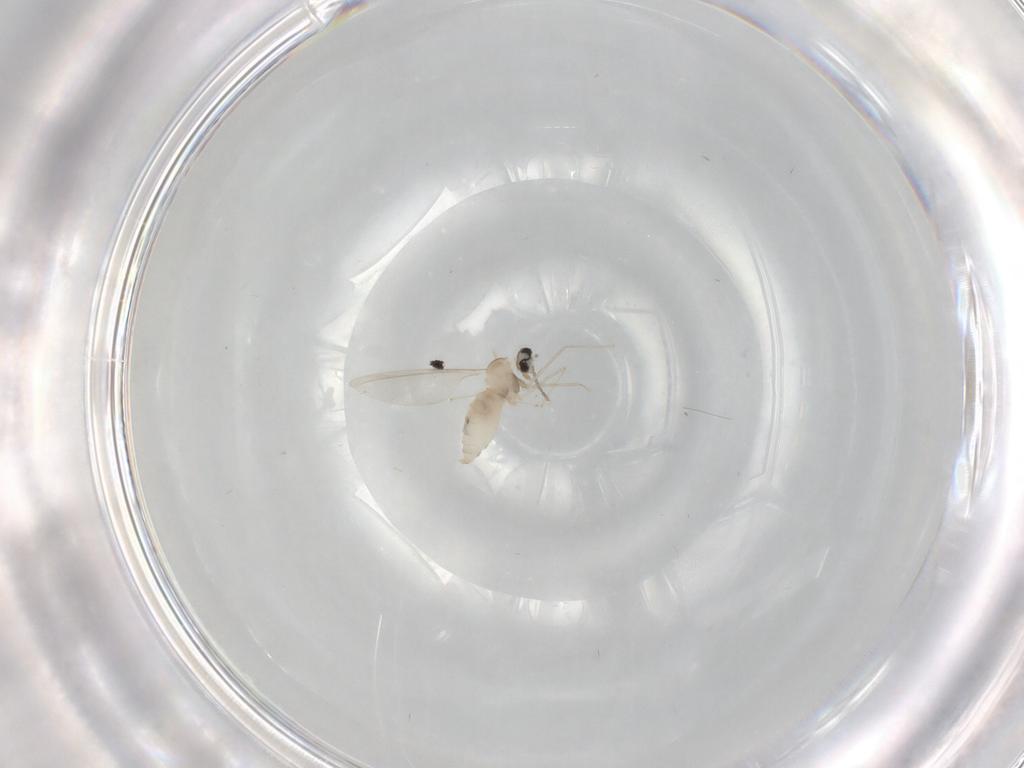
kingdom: Animalia
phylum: Arthropoda
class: Insecta
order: Diptera
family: Cecidomyiidae
